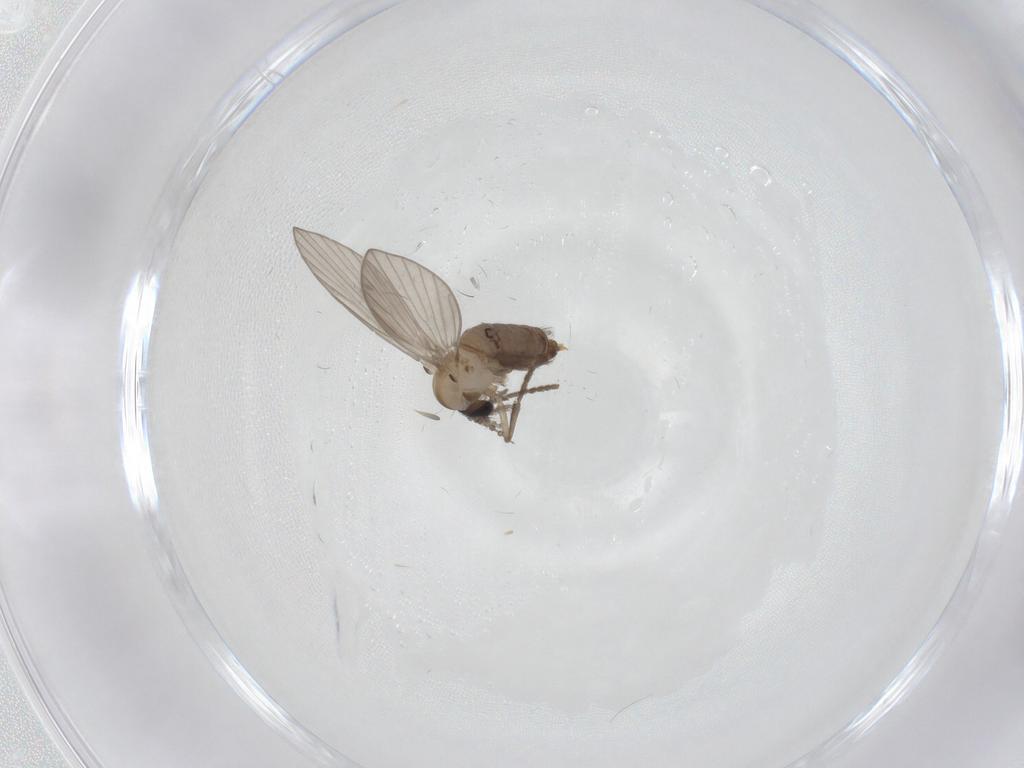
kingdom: Animalia
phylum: Arthropoda
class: Insecta
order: Diptera
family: Psychodidae
